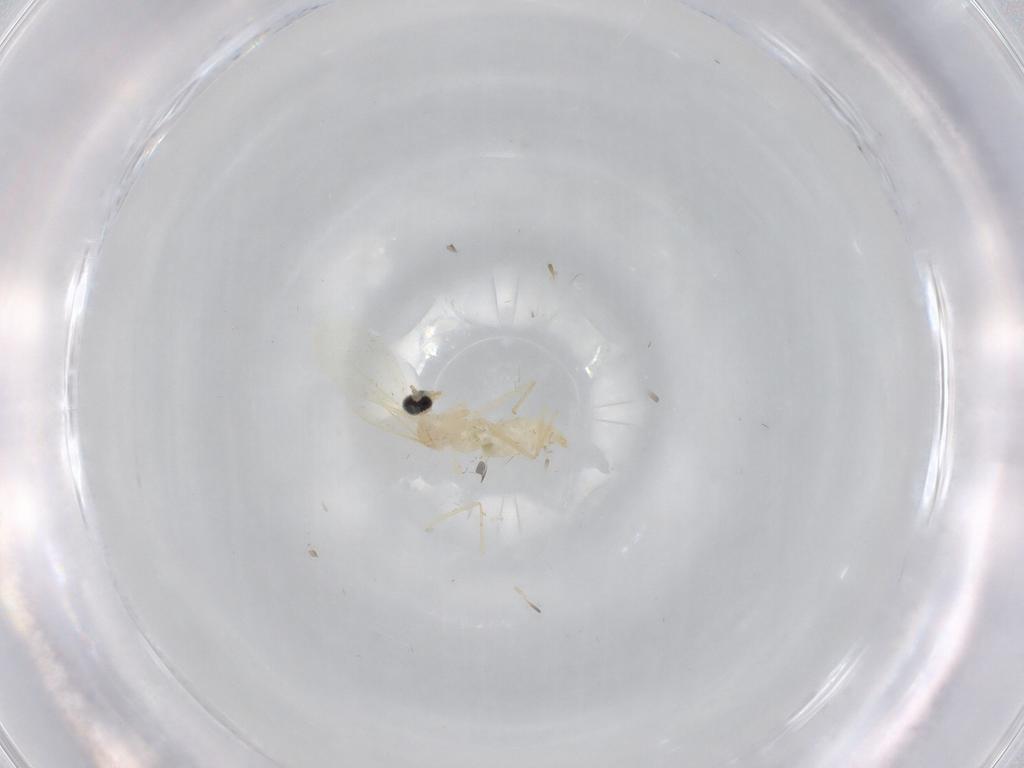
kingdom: Animalia
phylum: Arthropoda
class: Insecta
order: Diptera
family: Cecidomyiidae
